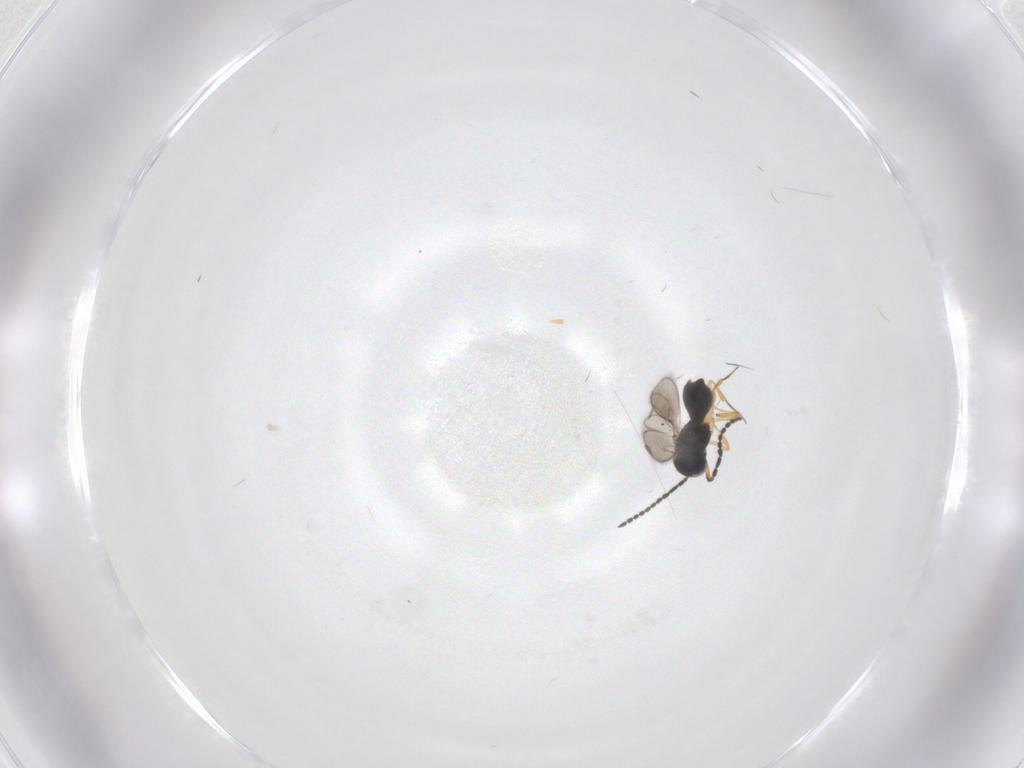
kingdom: Animalia
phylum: Arthropoda
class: Insecta
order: Hymenoptera
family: Scelionidae
